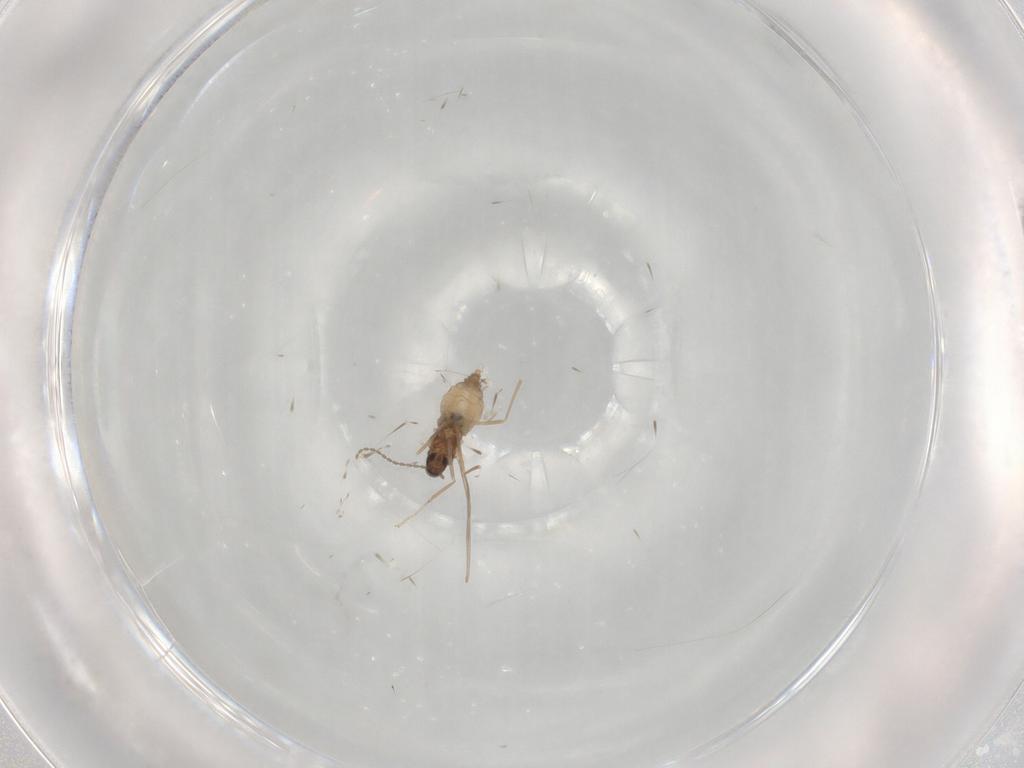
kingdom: Animalia
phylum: Arthropoda
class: Insecta
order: Diptera
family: Cecidomyiidae
